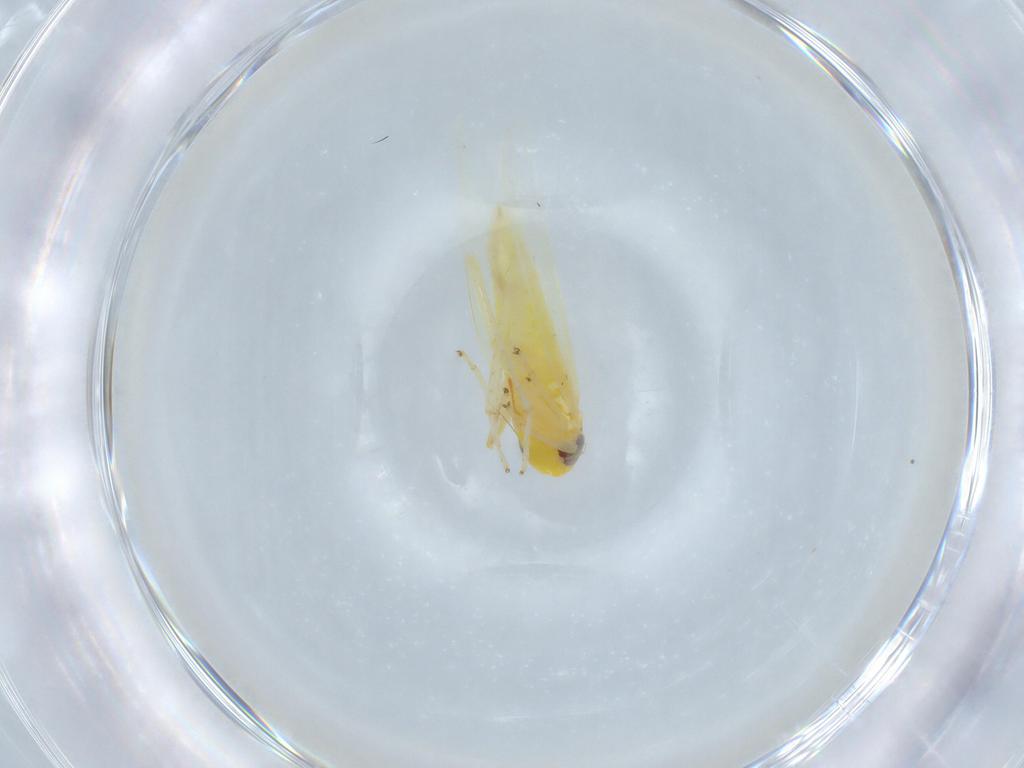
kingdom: Animalia
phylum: Arthropoda
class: Insecta
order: Hemiptera
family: Cicadellidae
